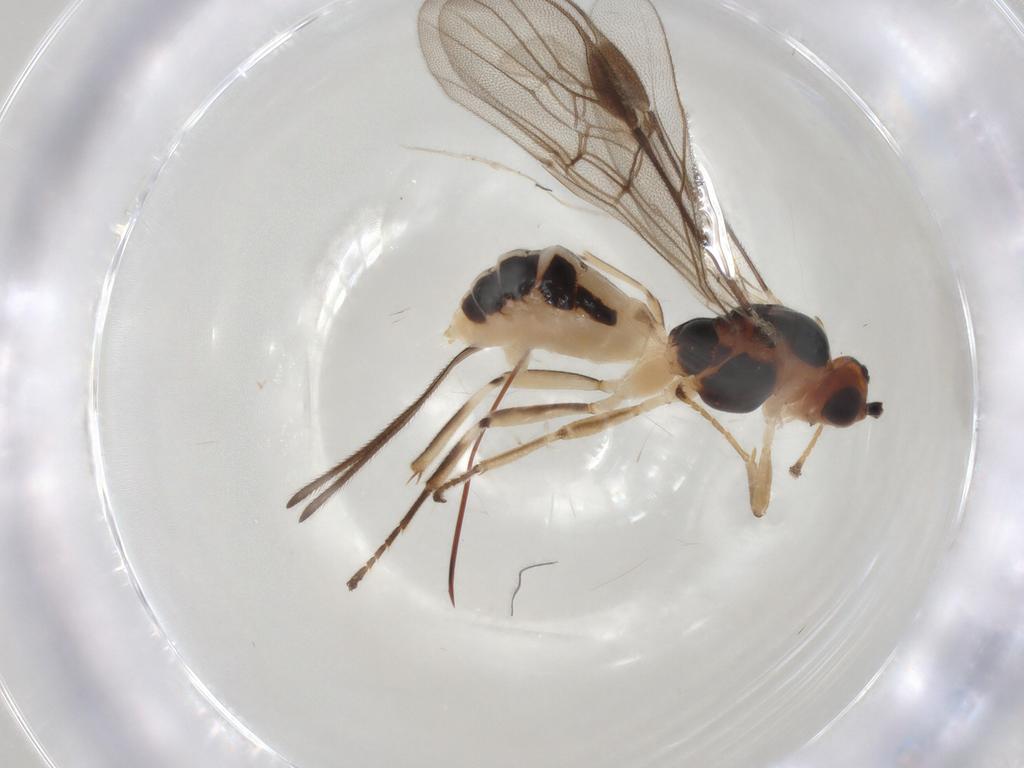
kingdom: Animalia
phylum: Arthropoda
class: Insecta
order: Hymenoptera
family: Braconidae
